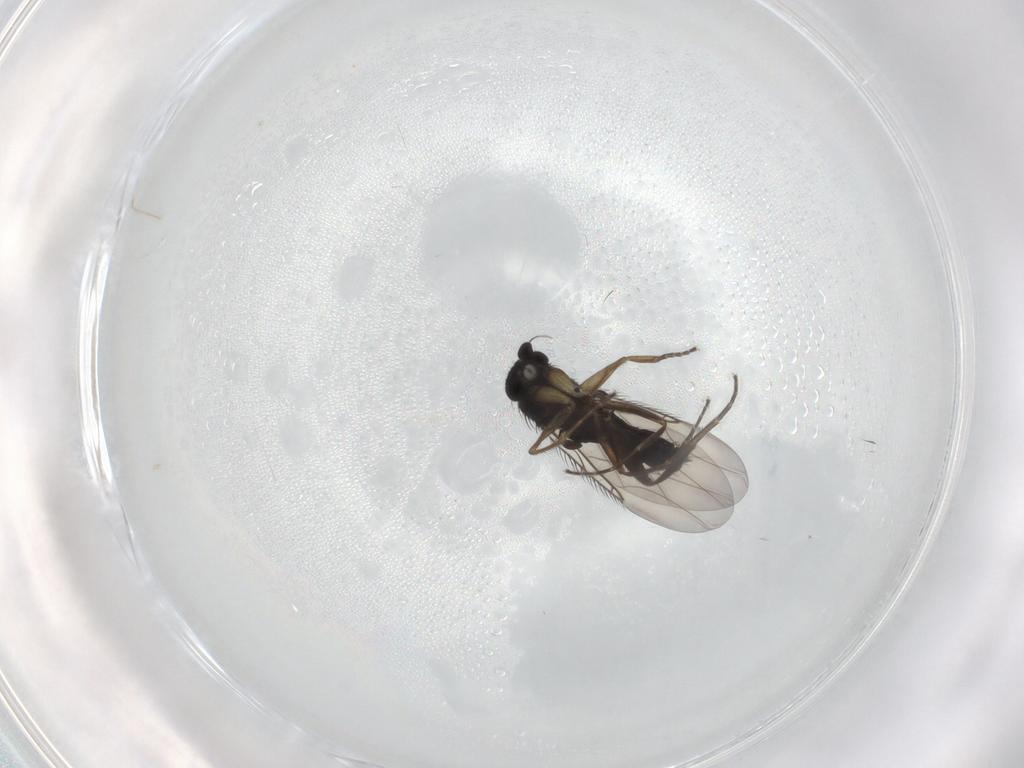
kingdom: Animalia
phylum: Arthropoda
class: Insecta
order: Diptera
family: Phoridae
